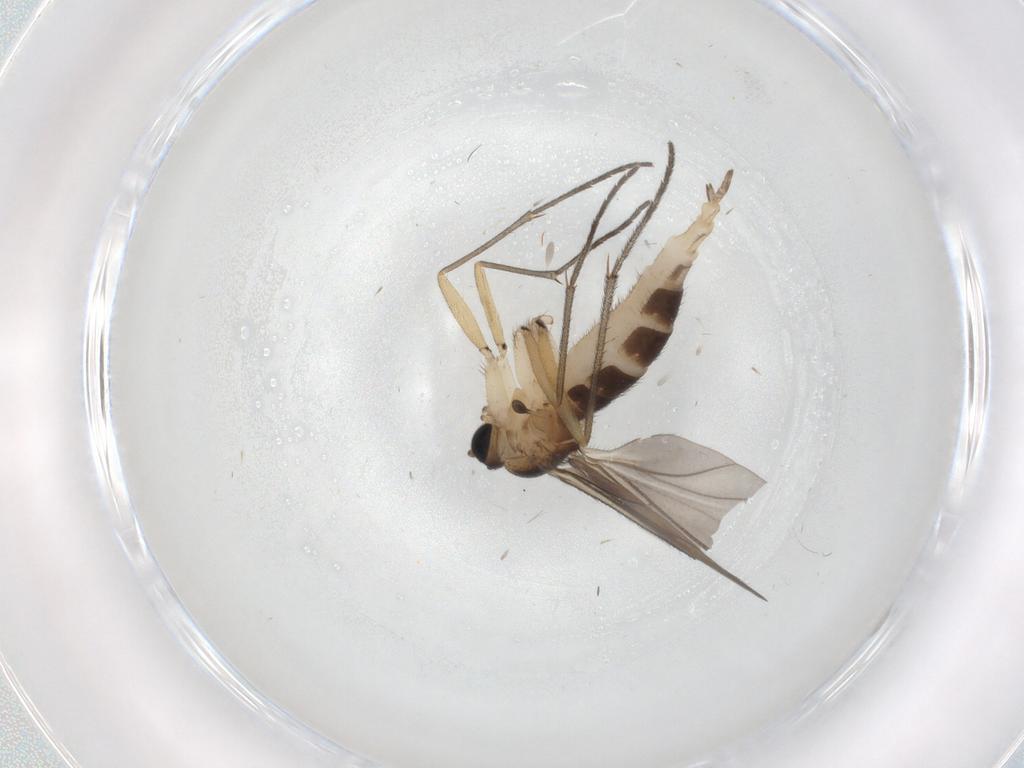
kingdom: Animalia
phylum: Arthropoda
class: Insecta
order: Diptera
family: Sciaridae
